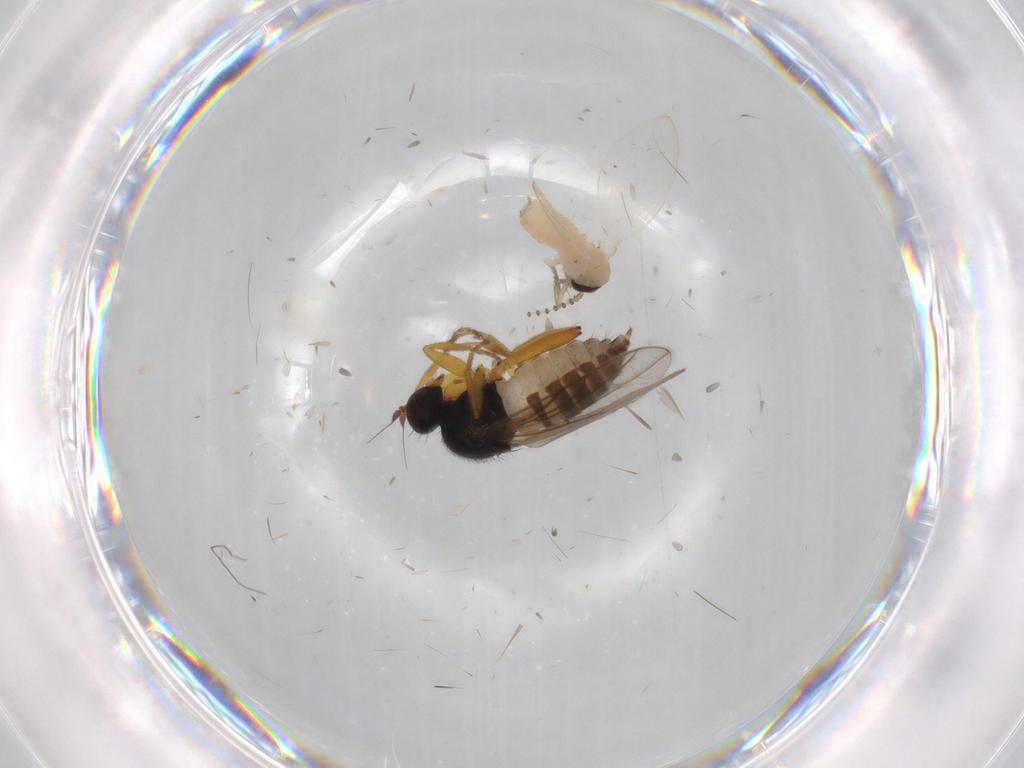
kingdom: Animalia
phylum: Arthropoda
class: Insecta
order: Diptera
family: Hybotidae
